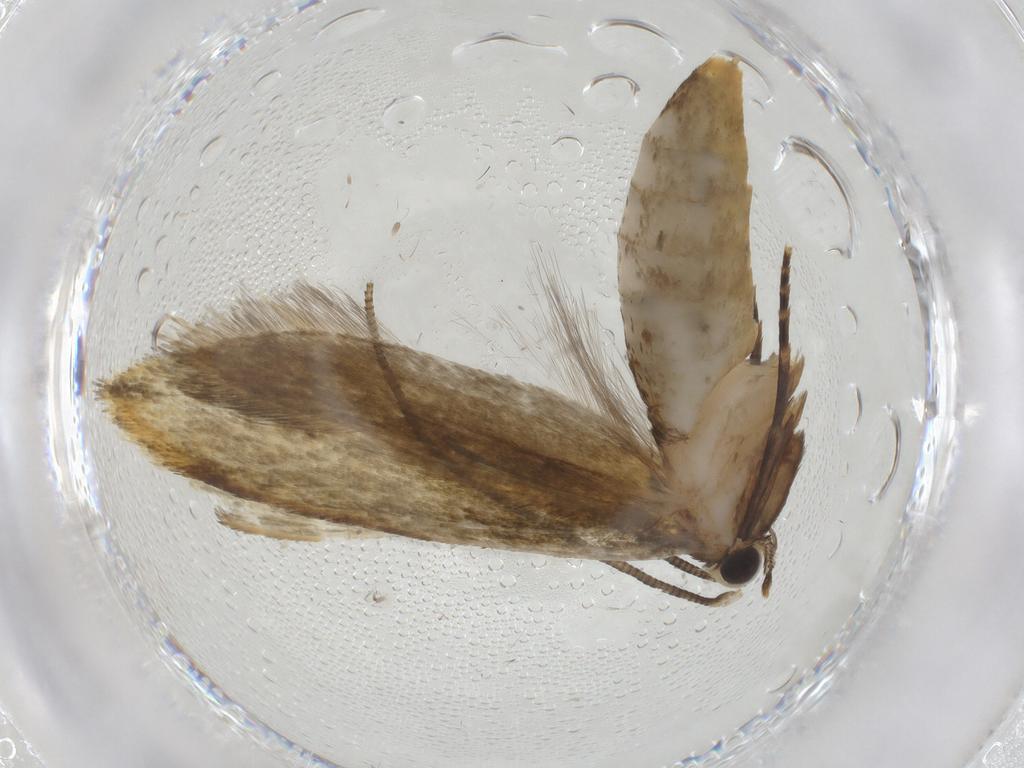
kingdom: Animalia
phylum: Arthropoda
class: Insecta
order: Lepidoptera
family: Tineidae
